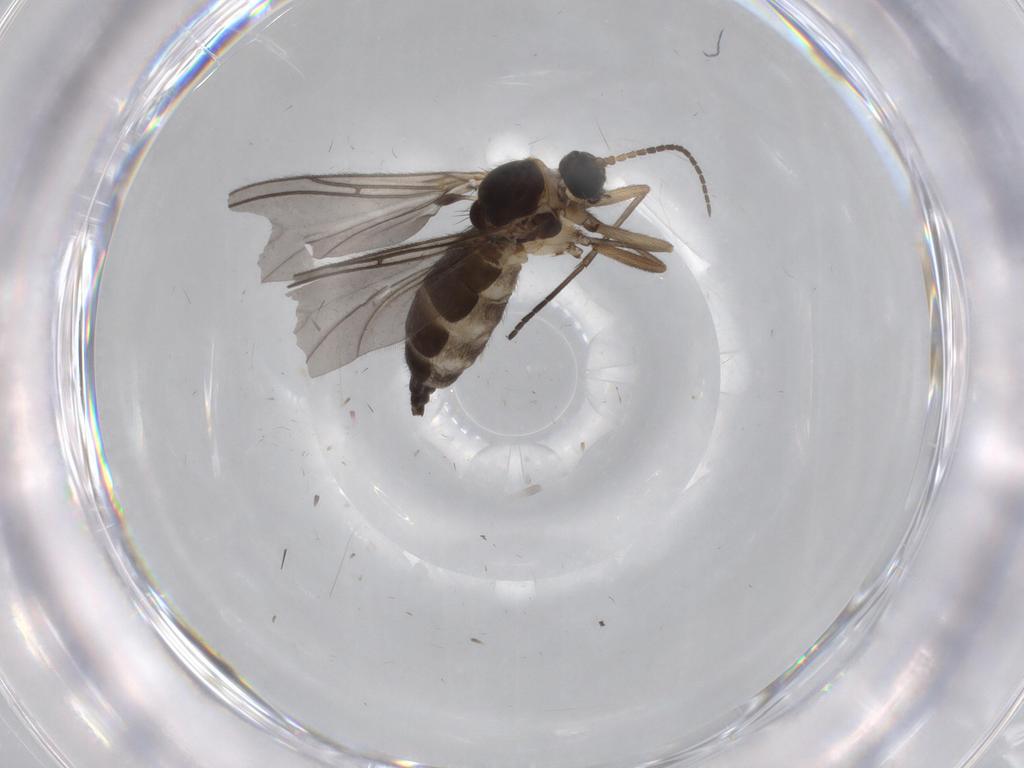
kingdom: Animalia
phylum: Arthropoda
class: Insecta
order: Diptera
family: Sciaridae
